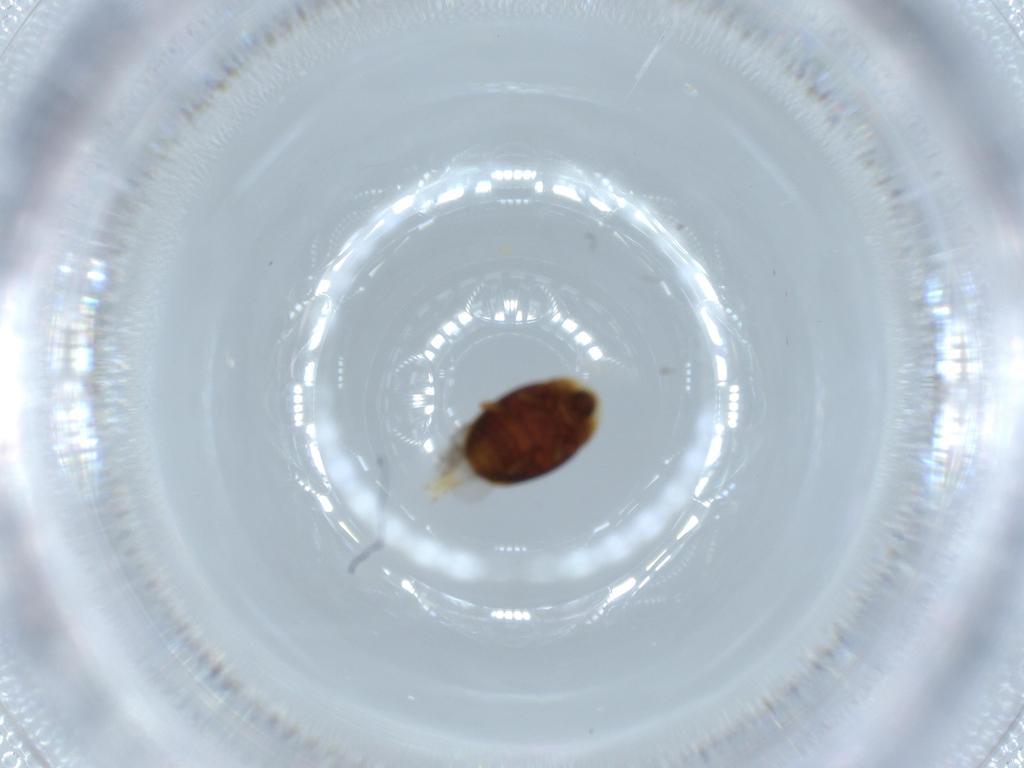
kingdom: Animalia
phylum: Arthropoda
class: Insecta
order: Coleoptera
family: Corylophidae
